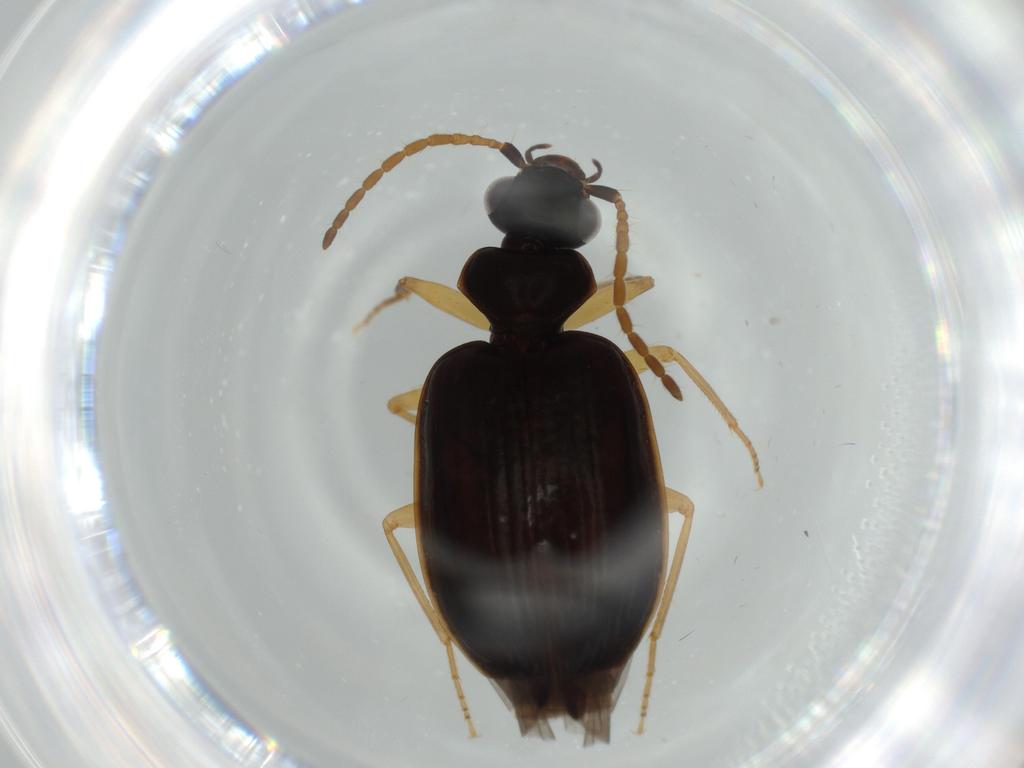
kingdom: Animalia
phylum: Arthropoda
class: Insecta
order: Coleoptera
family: Carabidae
